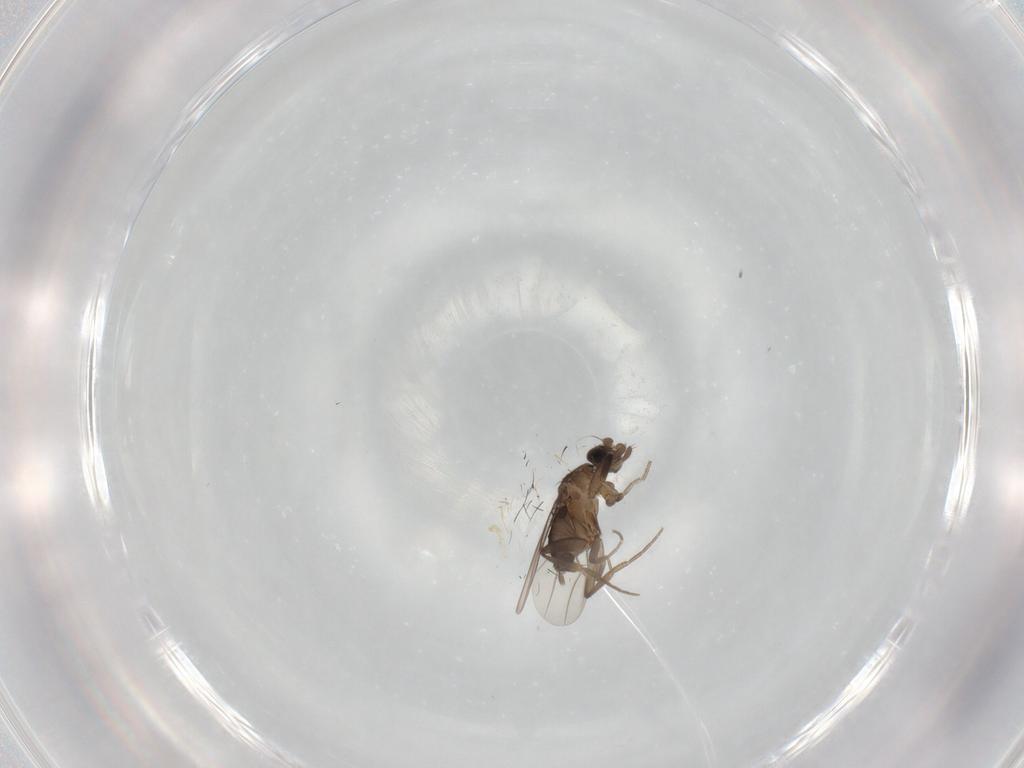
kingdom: Animalia
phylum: Arthropoda
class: Insecta
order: Diptera
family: Phoridae
